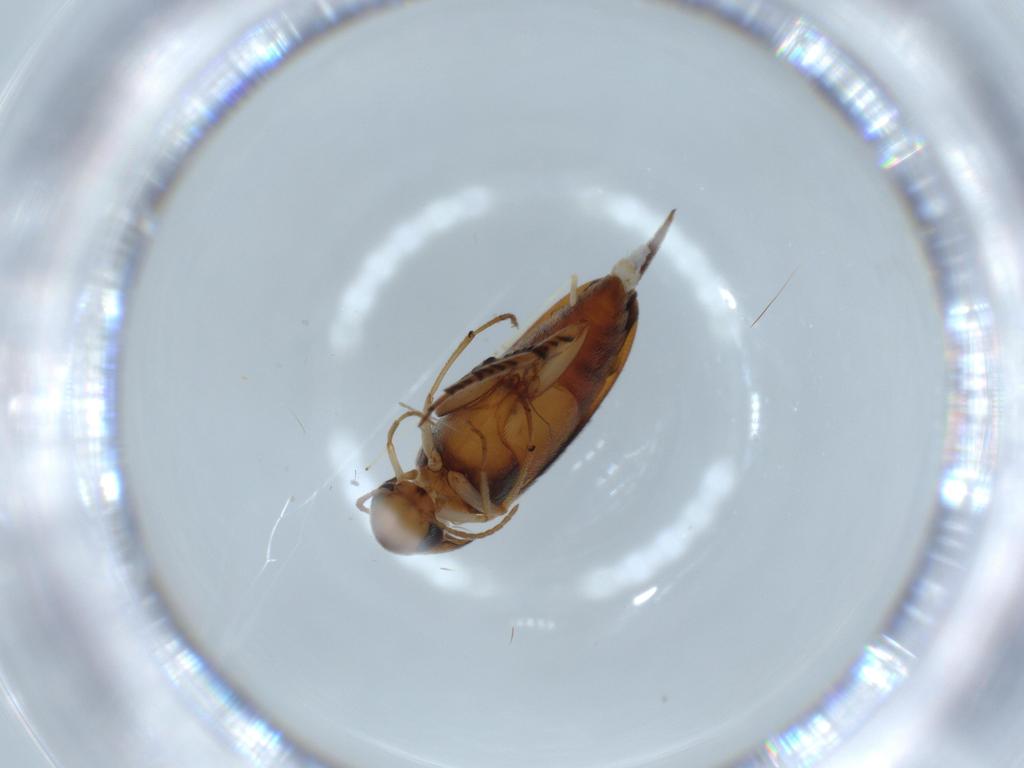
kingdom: Animalia
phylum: Arthropoda
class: Insecta
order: Coleoptera
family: Mordellidae
